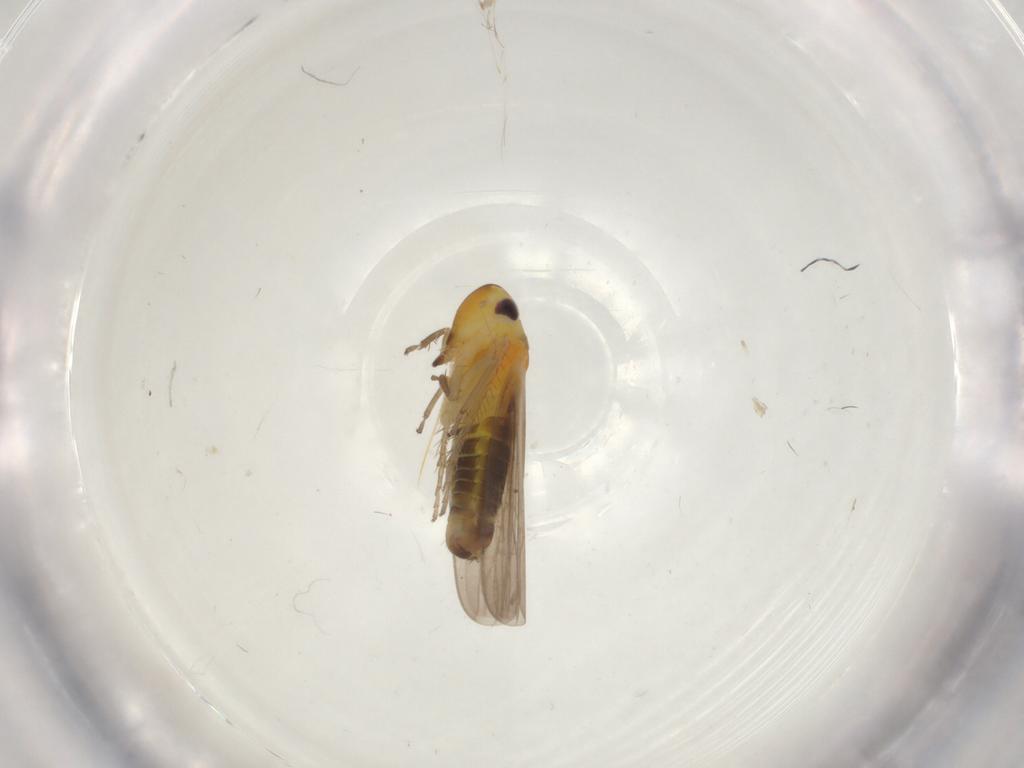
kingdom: Animalia
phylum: Arthropoda
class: Insecta
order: Hemiptera
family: Cicadellidae
